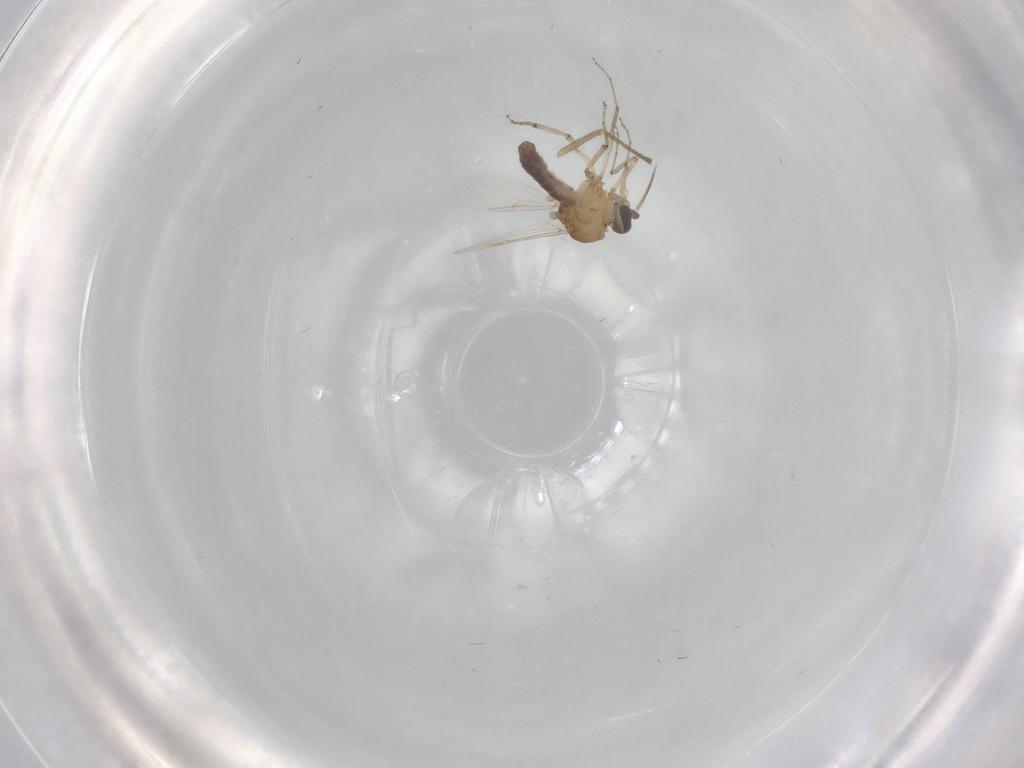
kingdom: Animalia
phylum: Arthropoda
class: Insecta
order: Diptera
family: Ceratopogonidae
